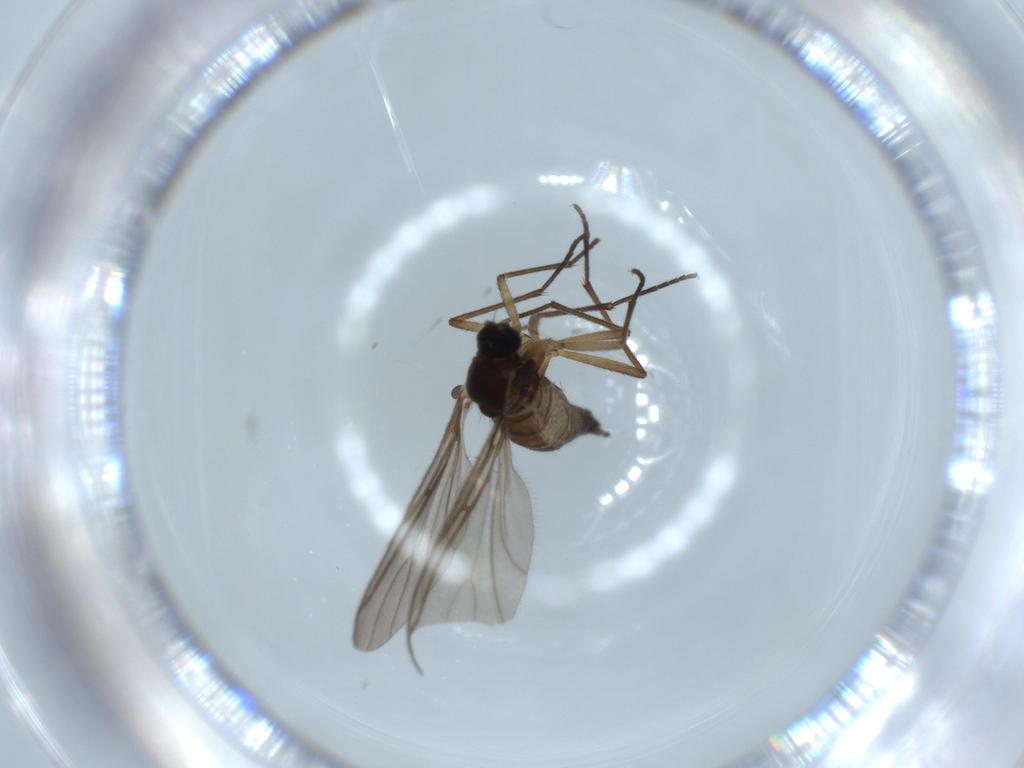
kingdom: Animalia
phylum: Arthropoda
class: Insecta
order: Diptera
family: Sciaridae
